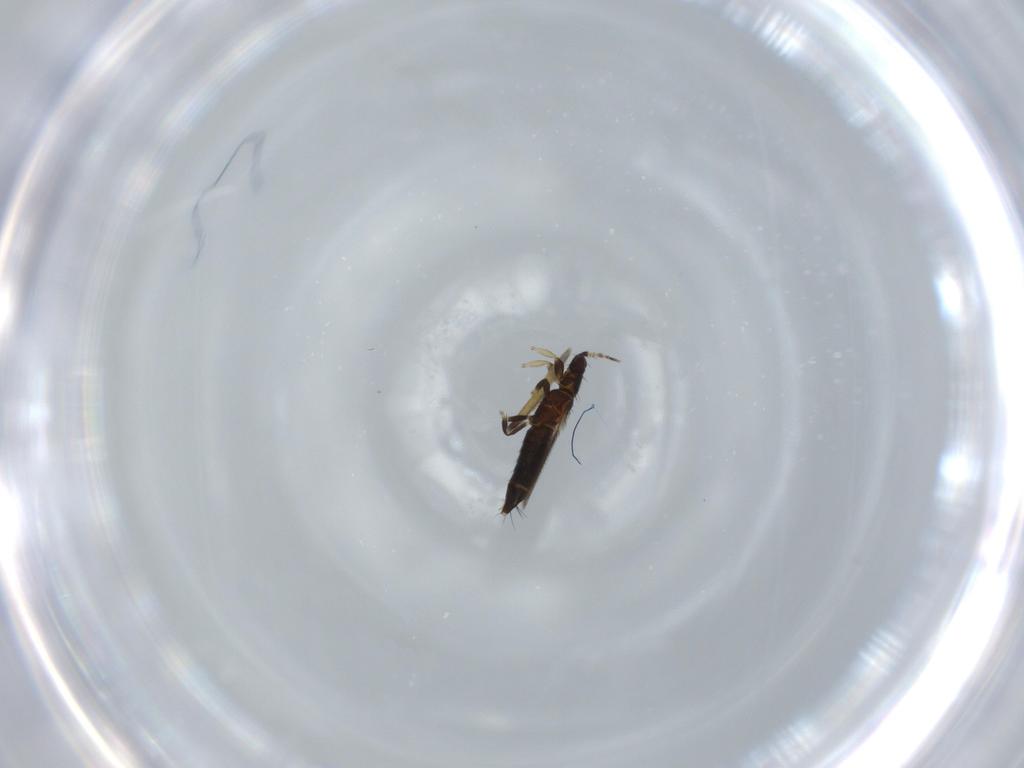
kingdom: Animalia
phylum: Arthropoda
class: Insecta
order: Thysanoptera
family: Thripidae
